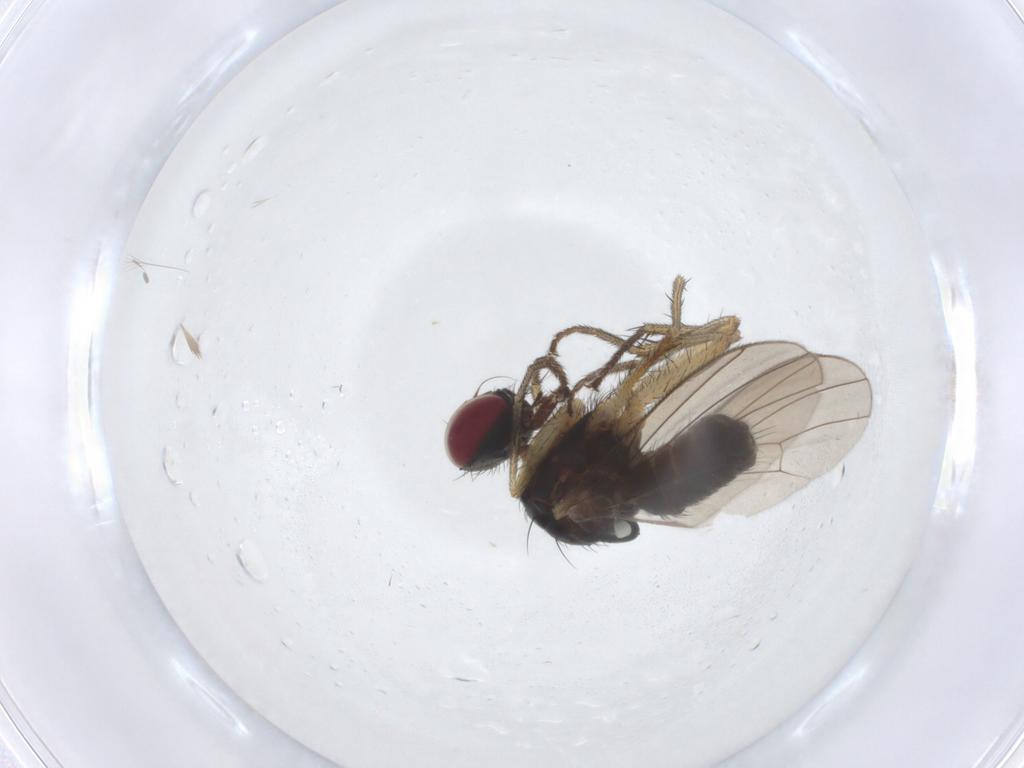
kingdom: Animalia
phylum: Arthropoda
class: Insecta
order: Diptera
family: Muscidae
